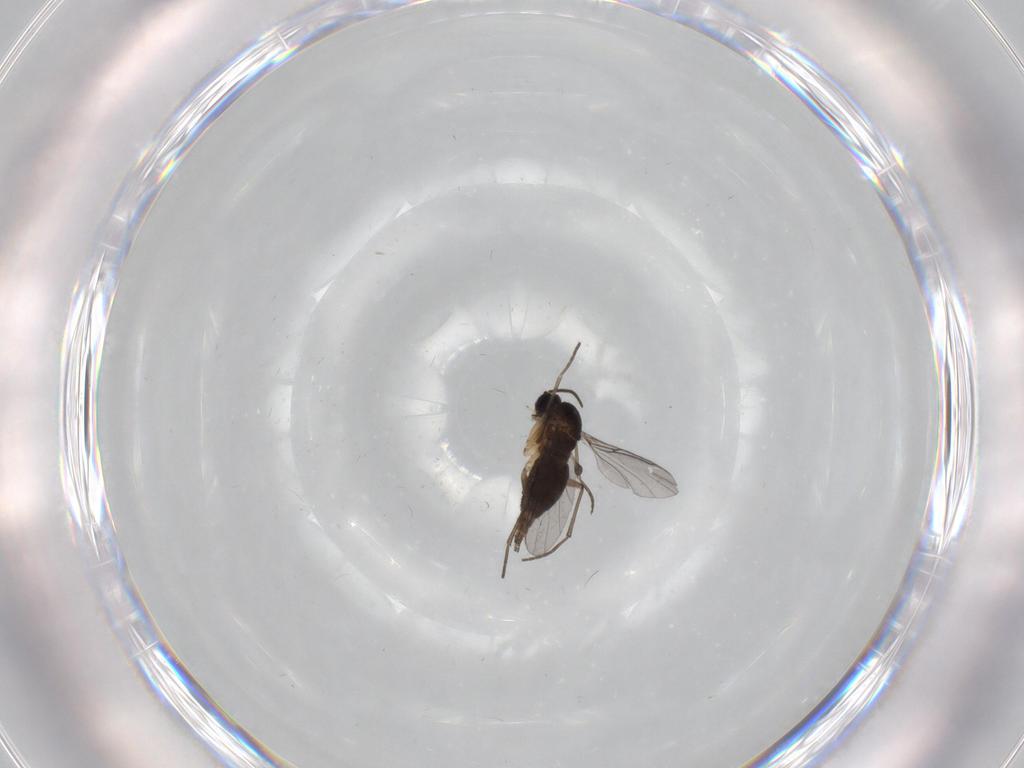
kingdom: Animalia
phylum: Arthropoda
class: Insecta
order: Diptera
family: Sciaridae
